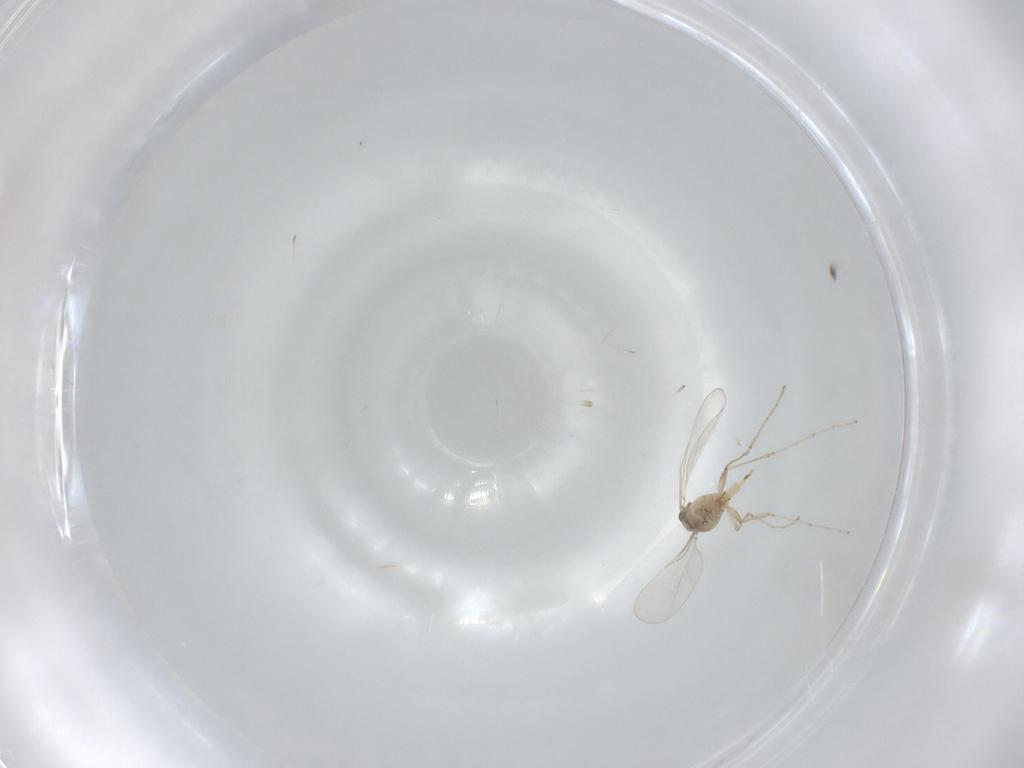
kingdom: Animalia
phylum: Arthropoda
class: Insecta
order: Diptera
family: Cecidomyiidae
